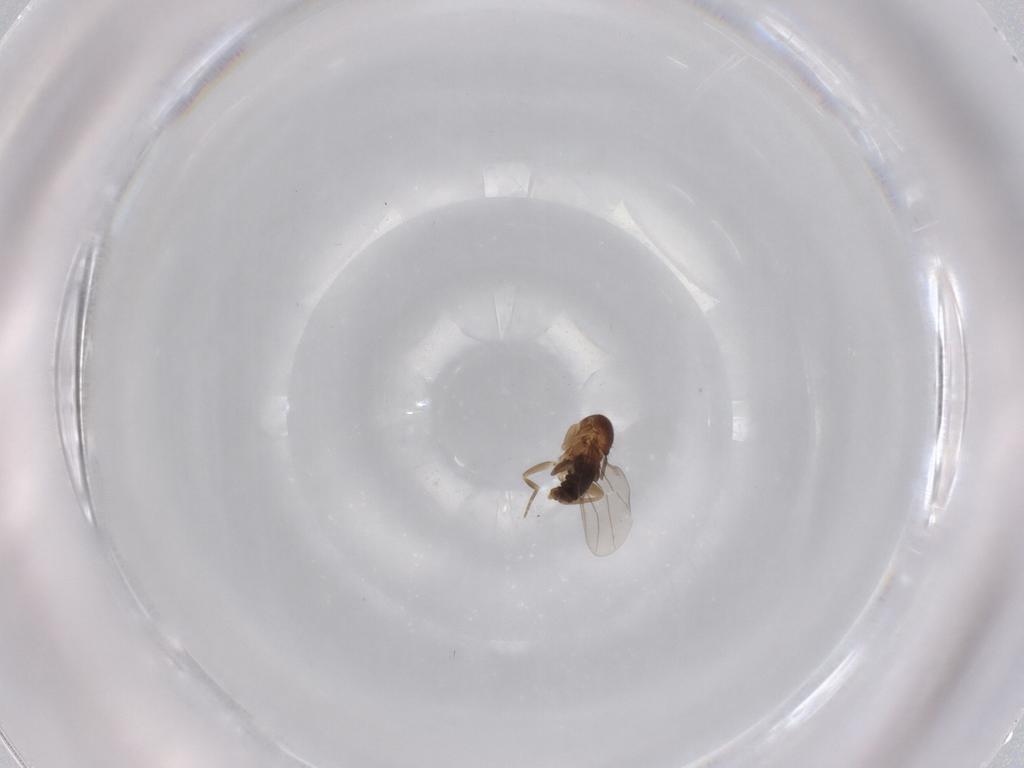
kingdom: Animalia
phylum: Arthropoda
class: Insecta
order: Diptera
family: Phoridae
